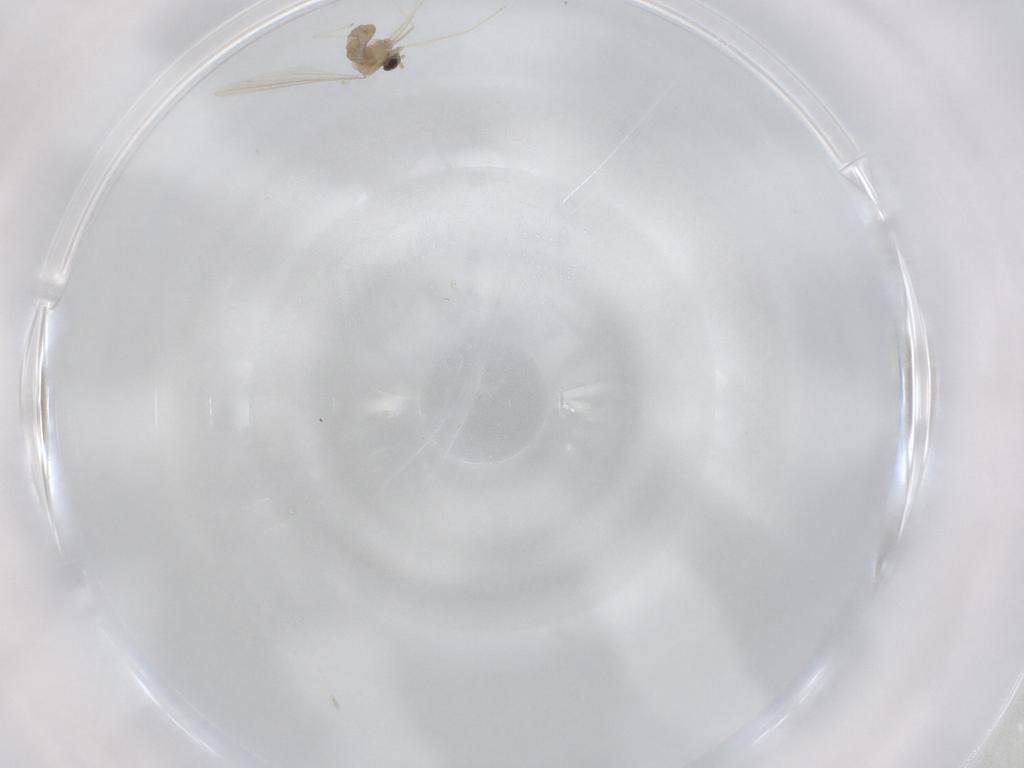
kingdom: Animalia
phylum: Arthropoda
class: Insecta
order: Diptera
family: Cecidomyiidae
